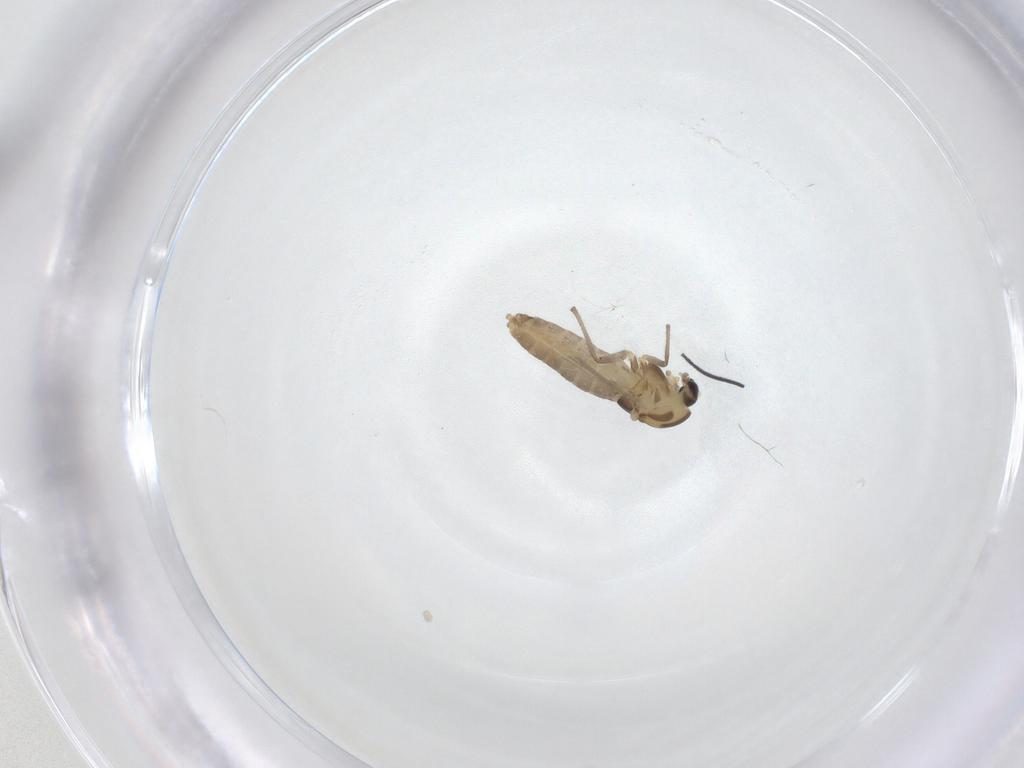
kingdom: Animalia
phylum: Arthropoda
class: Insecta
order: Diptera
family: Chironomidae
